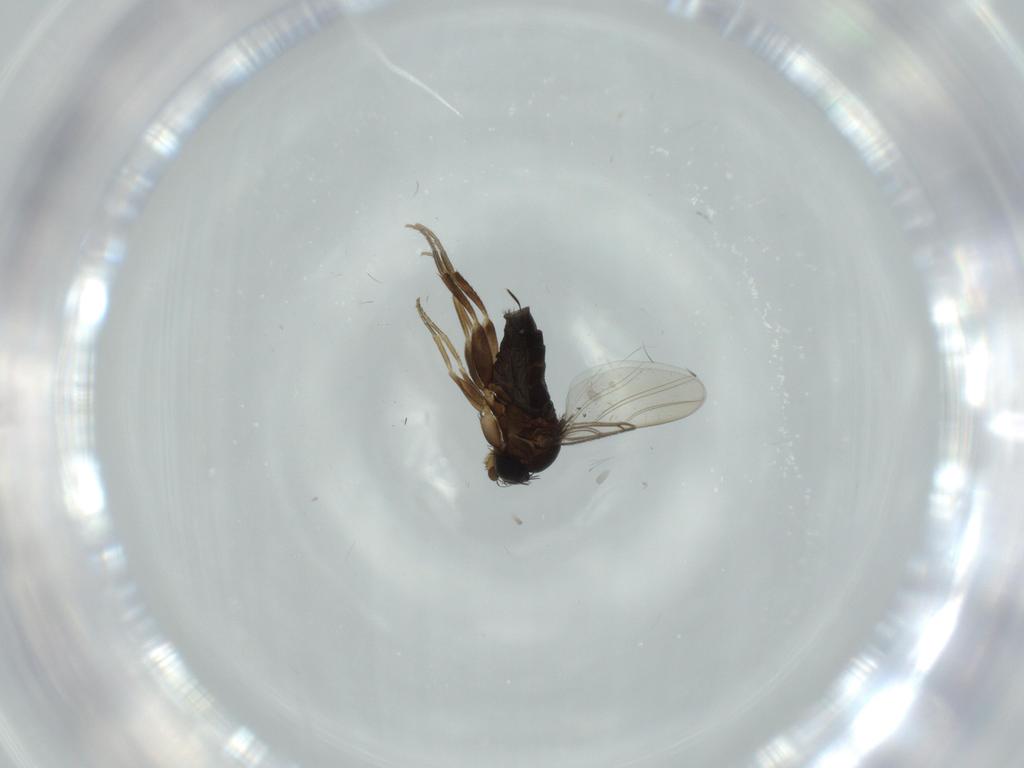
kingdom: Animalia
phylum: Arthropoda
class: Insecta
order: Diptera
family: Phoridae
